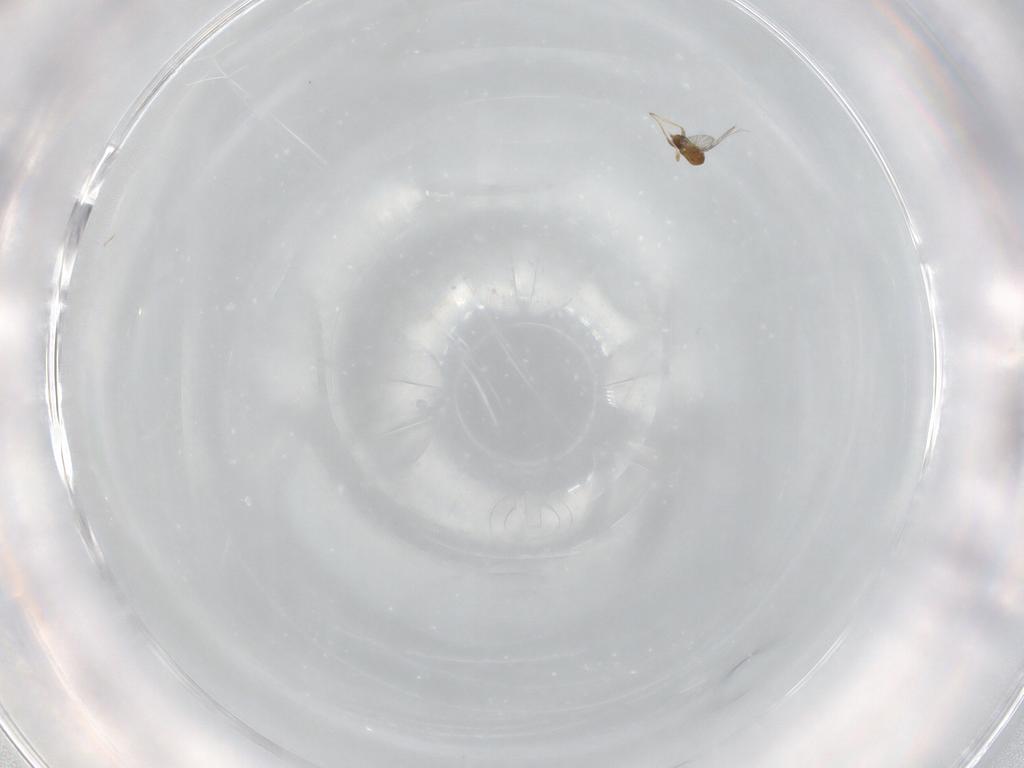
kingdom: Animalia
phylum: Arthropoda
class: Insecta
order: Hymenoptera
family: Trichogrammatidae
